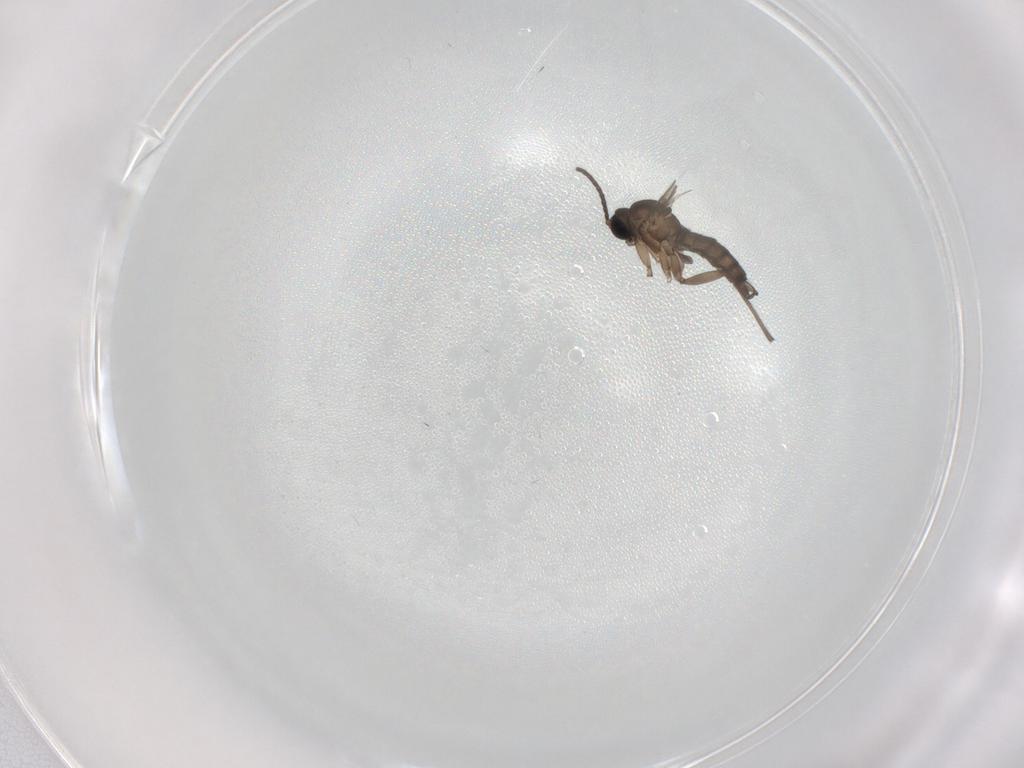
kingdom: Animalia
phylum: Arthropoda
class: Insecta
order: Diptera
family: Sciaridae
